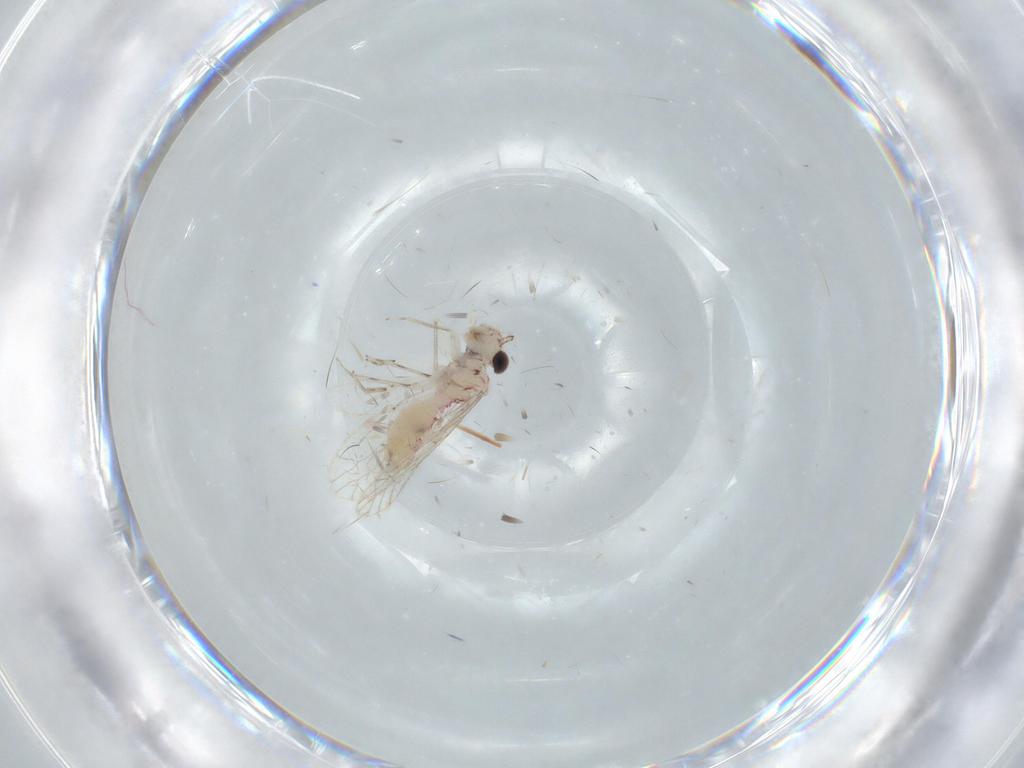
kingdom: Animalia
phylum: Arthropoda
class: Insecta
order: Psocodea
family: Caeciliusidae
